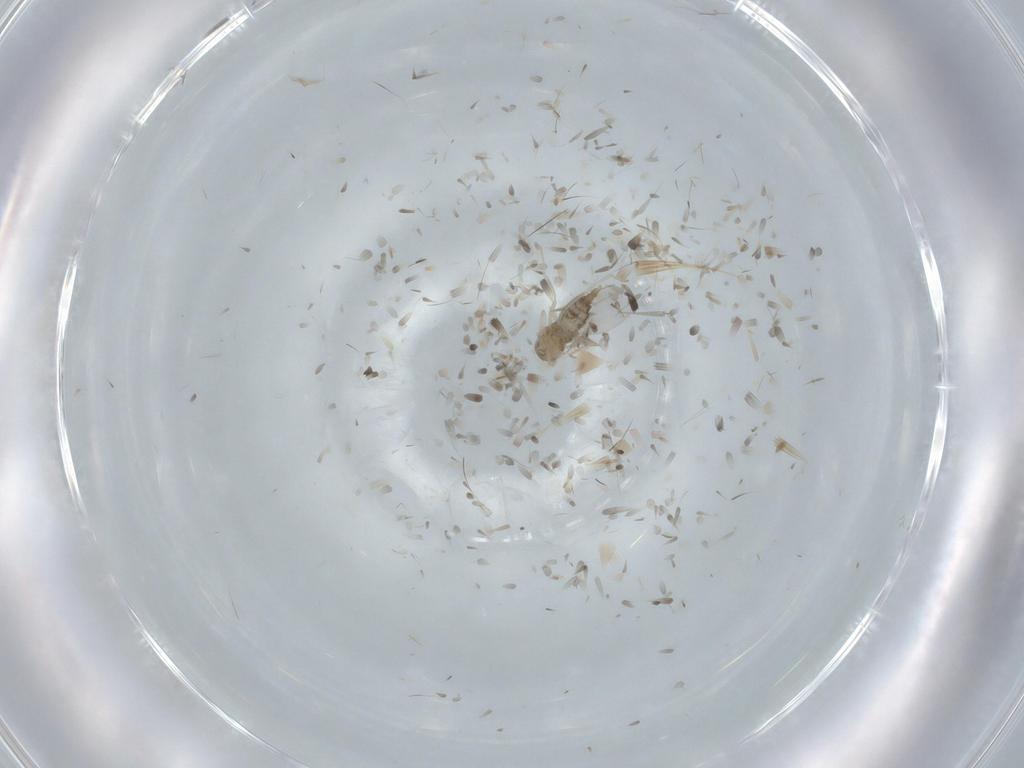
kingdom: Animalia
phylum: Arthropoda
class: Insecta
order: Diptera
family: Cecidomyiidae
